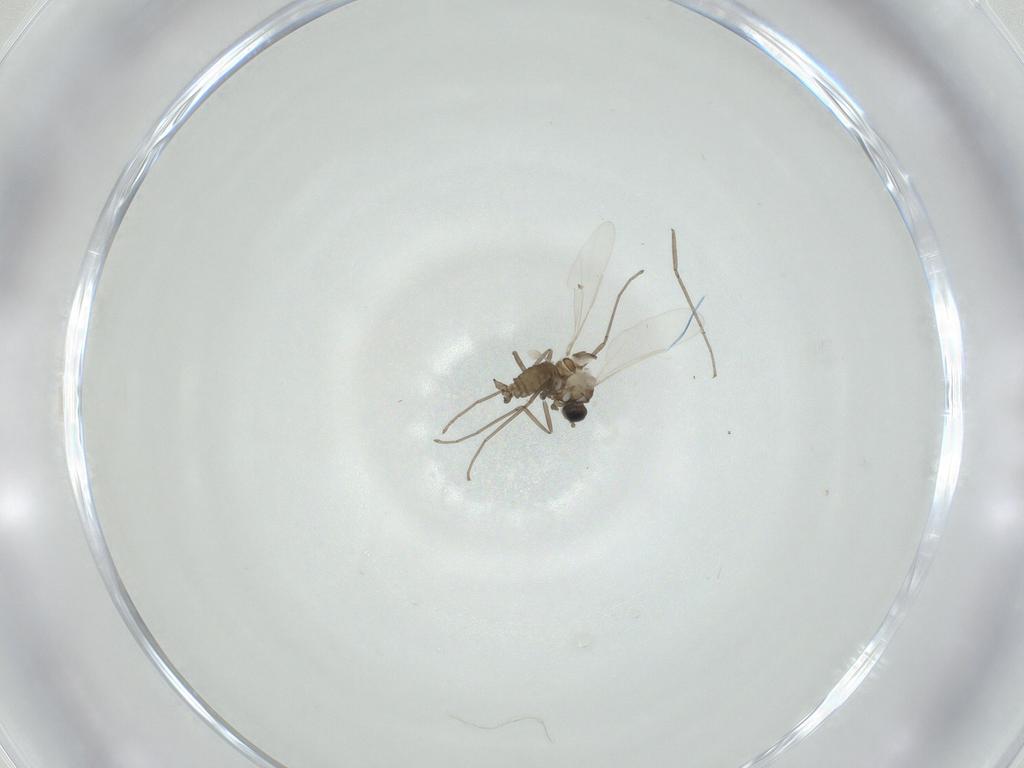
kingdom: Animalia
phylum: Arthropoda
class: Insecta
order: Diptera
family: Cecidomyiidae
